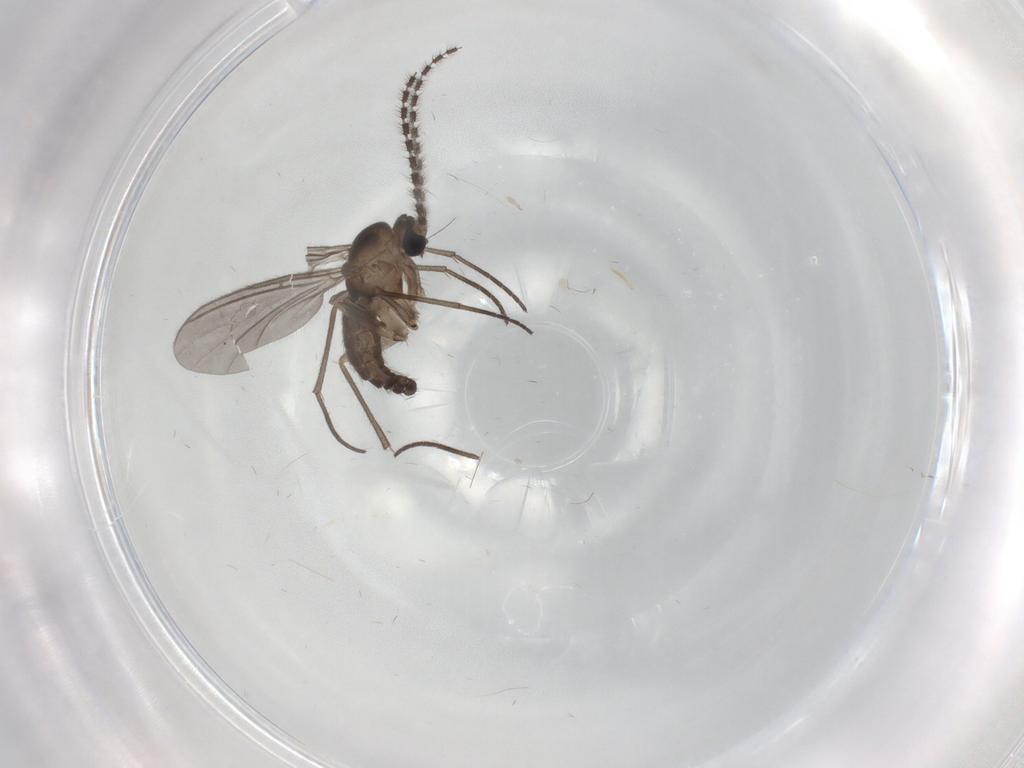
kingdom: Animalia
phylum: Arthropoda
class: Insecta
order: Diptera
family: Sciaridae
